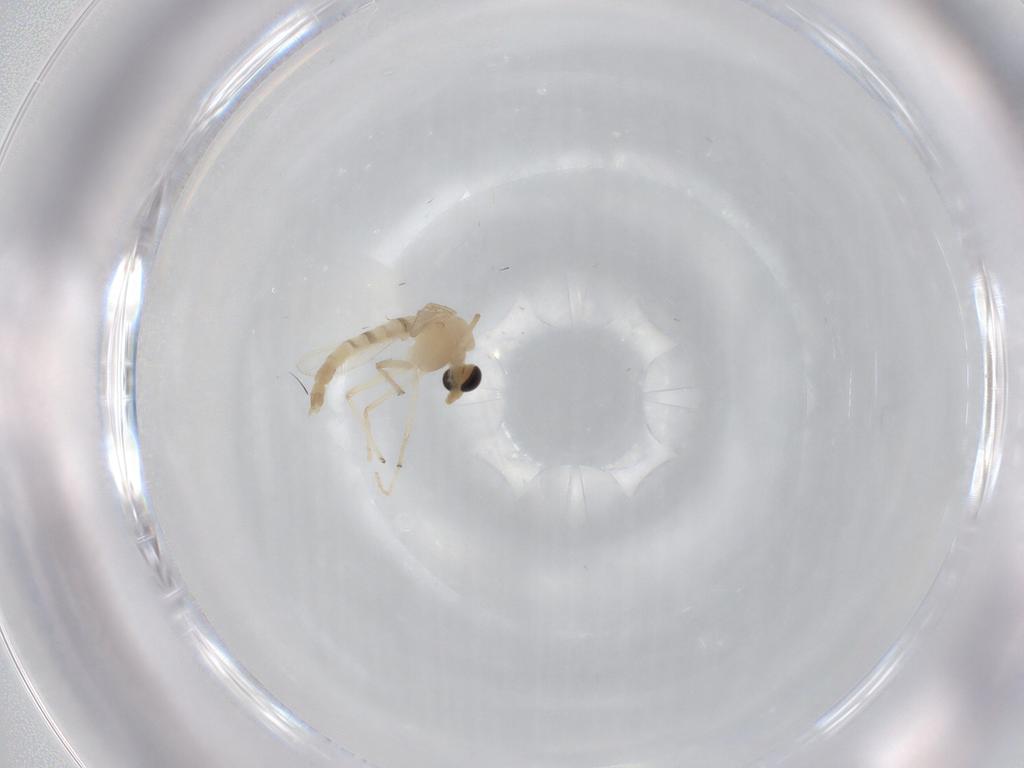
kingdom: Animalia
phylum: Arthropoda
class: Insecta
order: Diptera
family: Chironomidae
